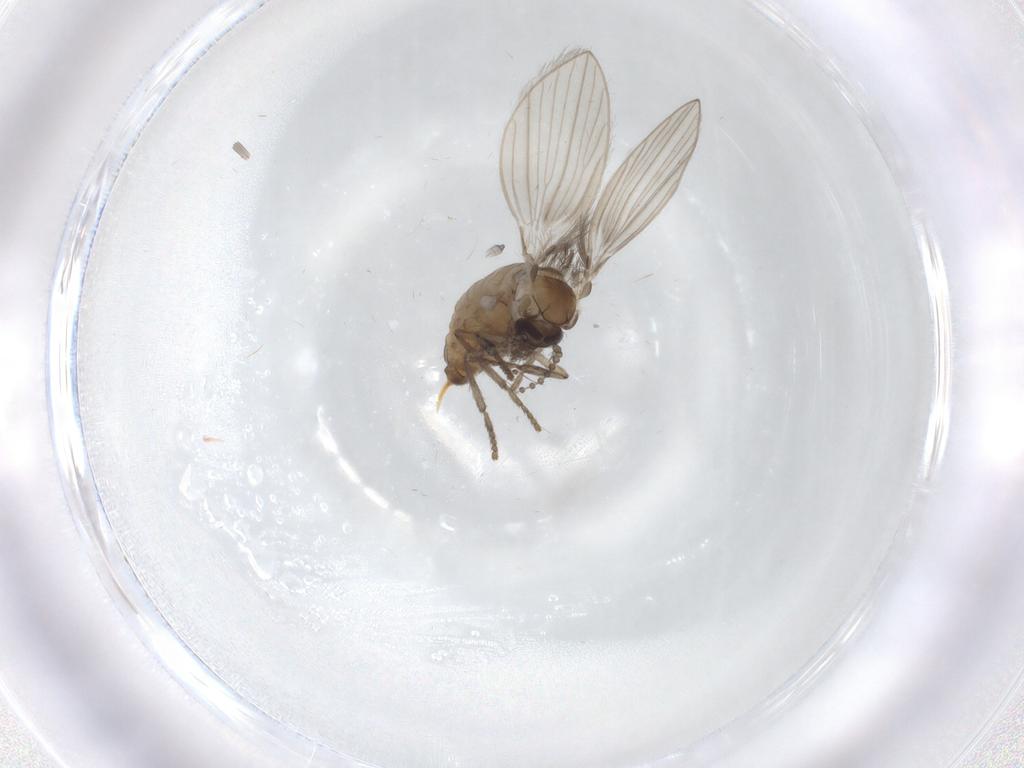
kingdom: Animalia
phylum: Arthropoda
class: Insecta
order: Diptera
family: Psychodidae
